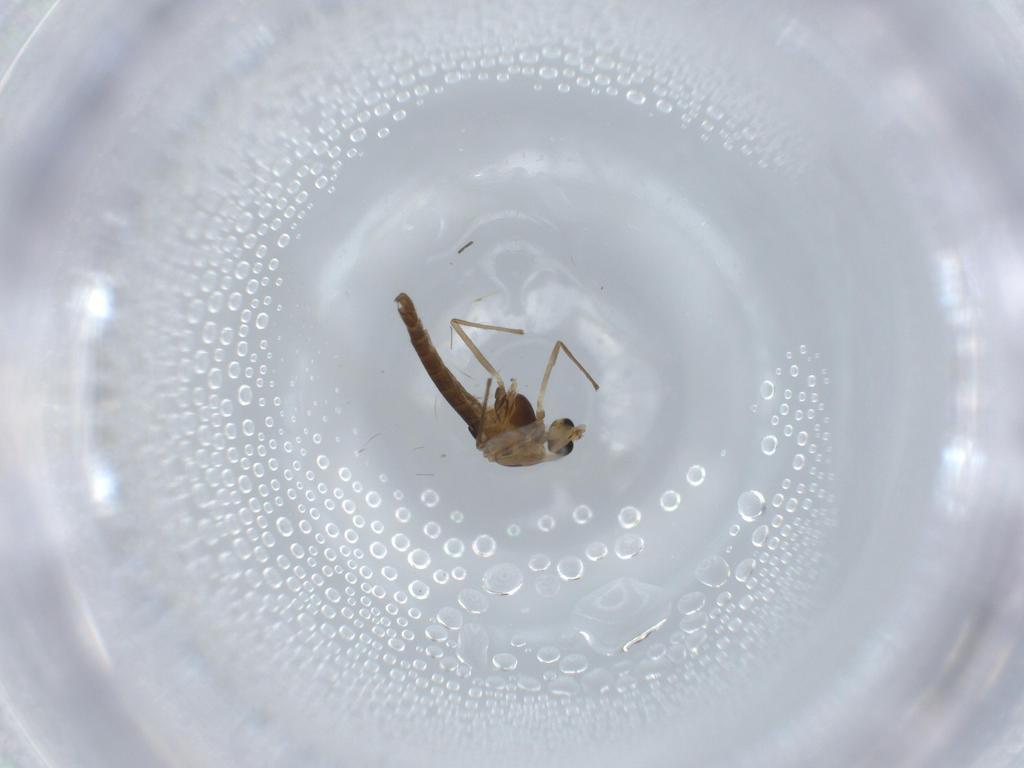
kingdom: Animalia
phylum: Arthropoda
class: Insecta
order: Diptera
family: Chironomidae
